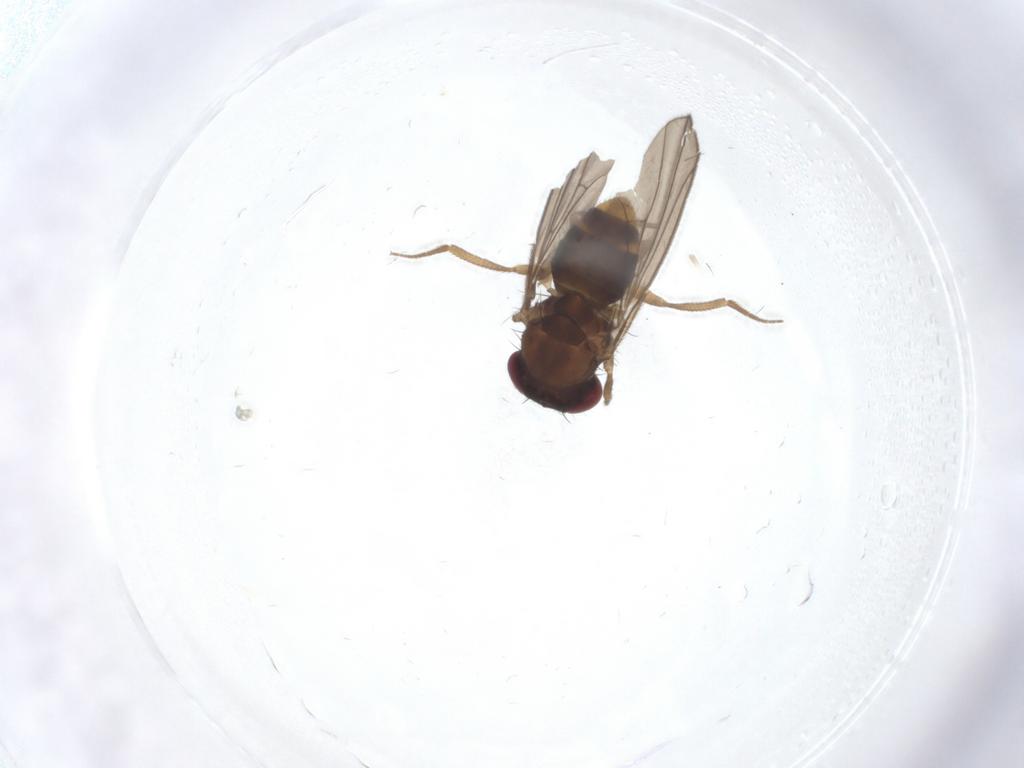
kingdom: Animalia
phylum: Arthropoda
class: Insecta
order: Diptera
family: Drosophilidae
